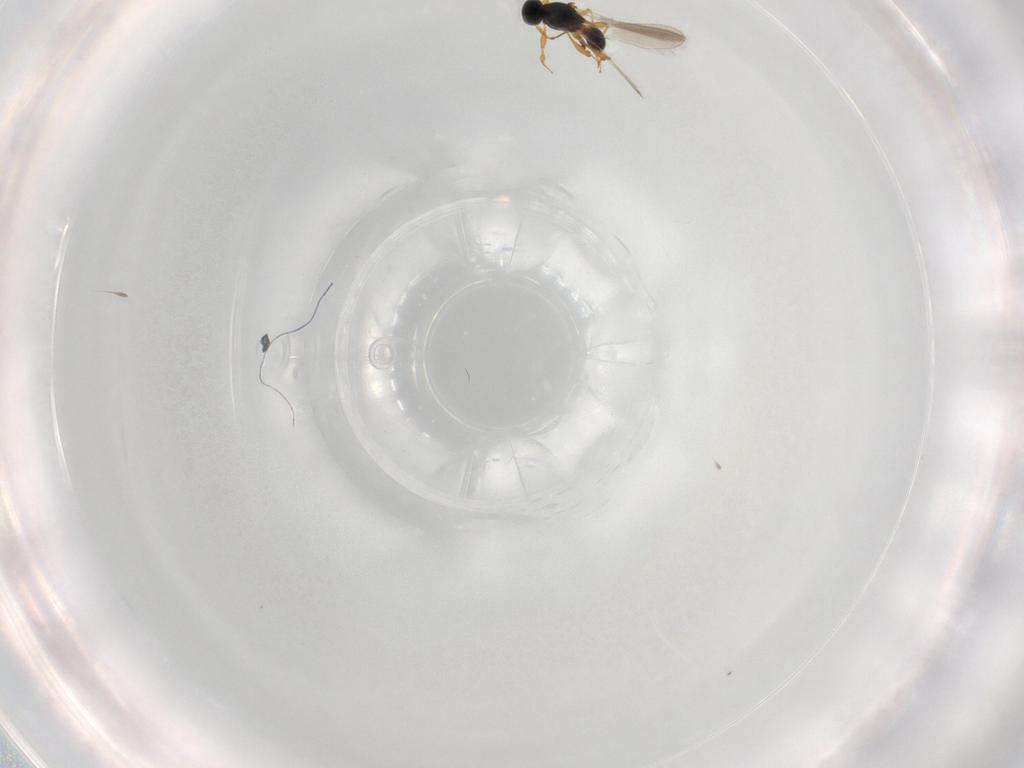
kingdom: Animalia
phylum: Arthropoda
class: Insecta
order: Hymenoptera
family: Platygastridae
